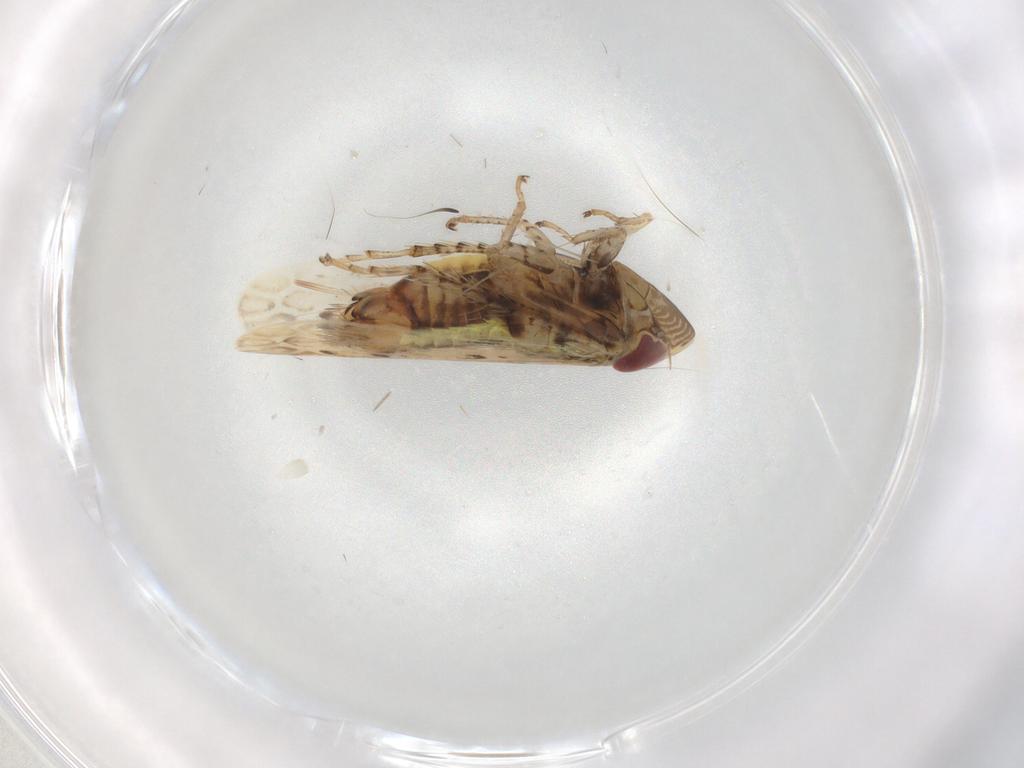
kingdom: Animalia
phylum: Arthropoda
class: Insecta
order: Hemiptera
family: Cicadellidae
